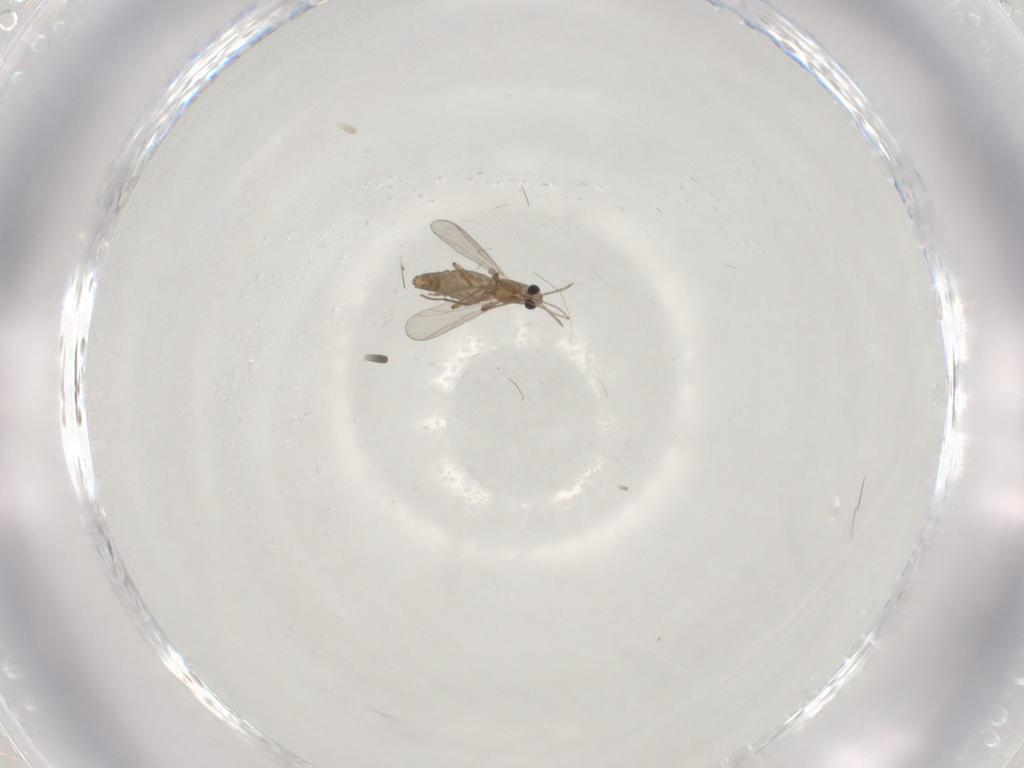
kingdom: Animalia
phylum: Arthropoda
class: Insecta
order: Diptera
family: Chironomidae
